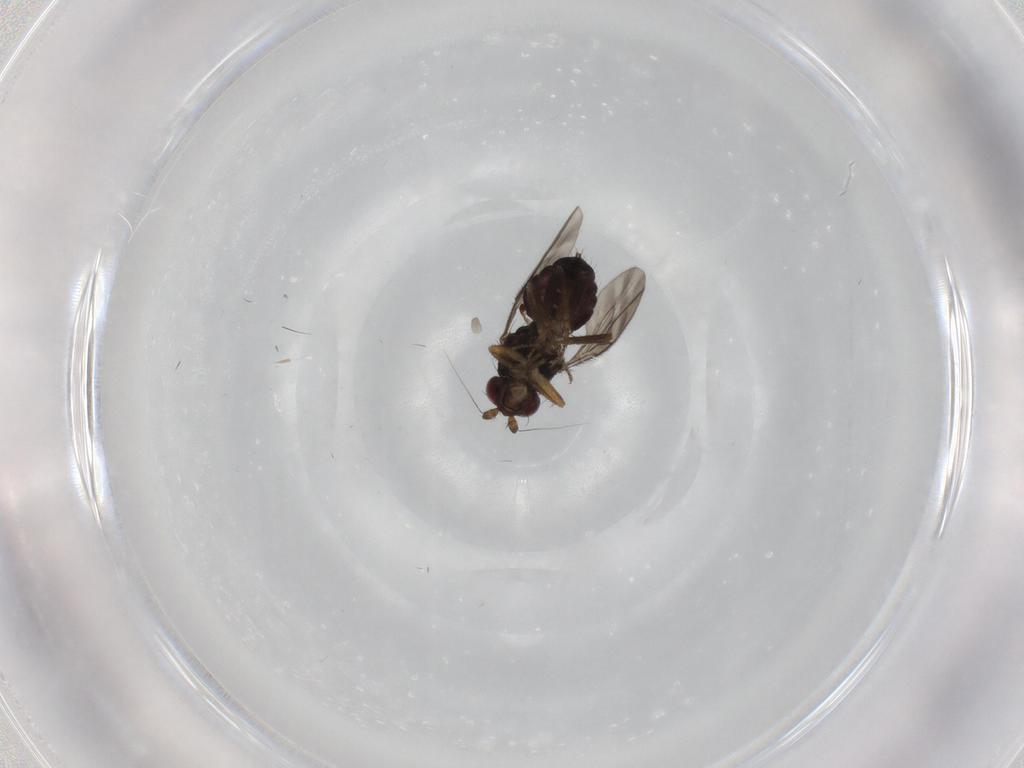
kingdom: Animalia
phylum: Arthropoda
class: Insecta
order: Diptera
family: Sphaeroceridae
